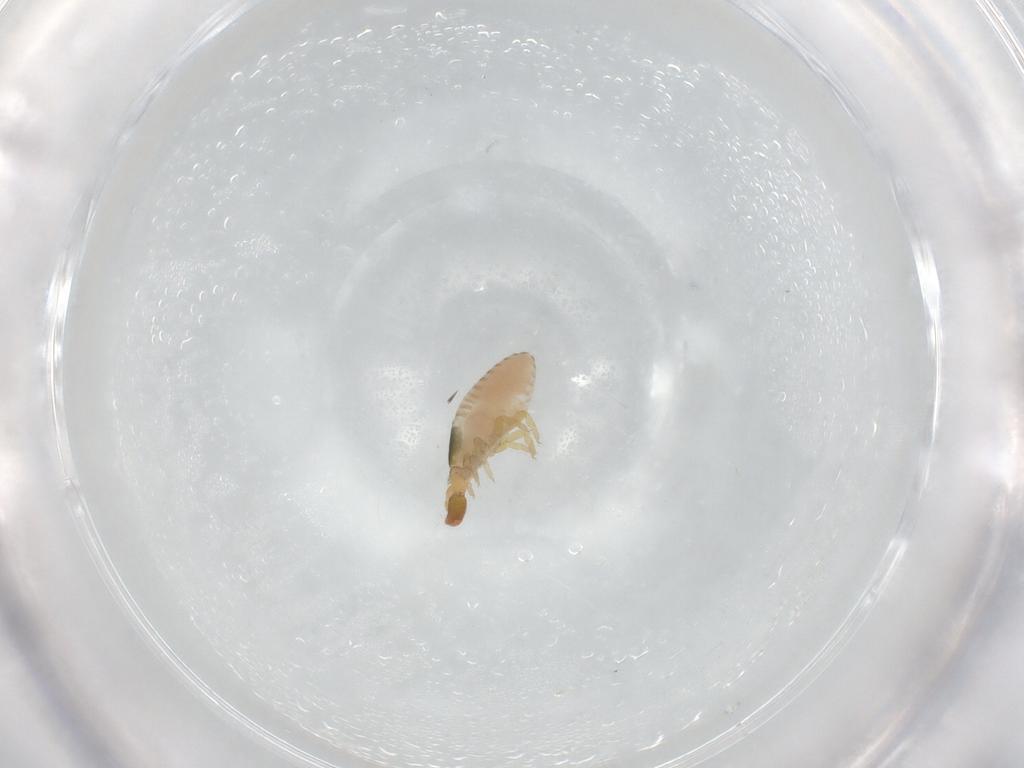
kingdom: Animalia
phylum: Arthropoda
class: Arachnida
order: Pseudoscorpiones
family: Chernetidae
